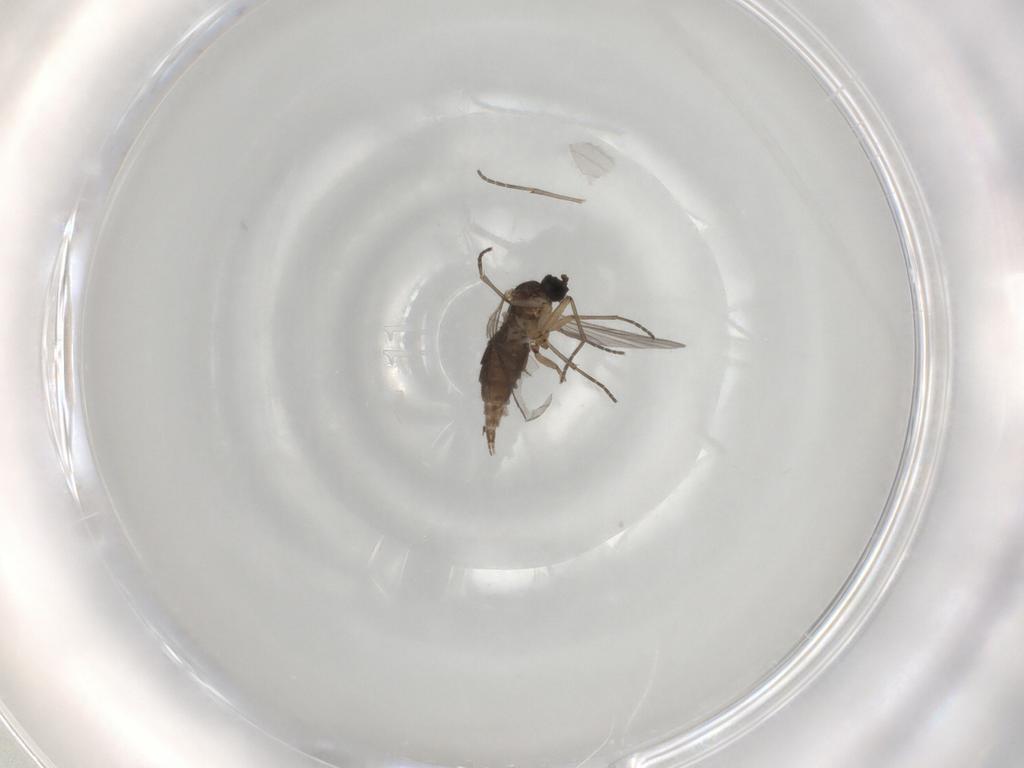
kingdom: Animalia
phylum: Arthropoda
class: Insecta
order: Diptera
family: Sciaridae
